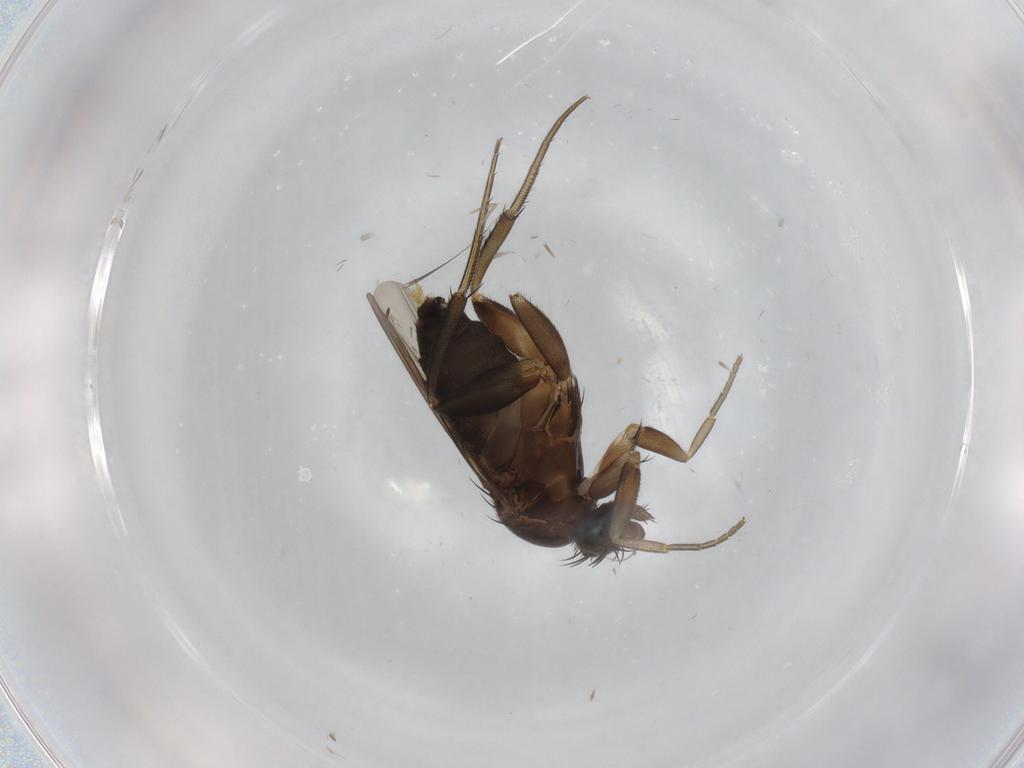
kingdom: Animalia
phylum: Arthropoda
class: Insecta
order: Diptera
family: Phoridae
